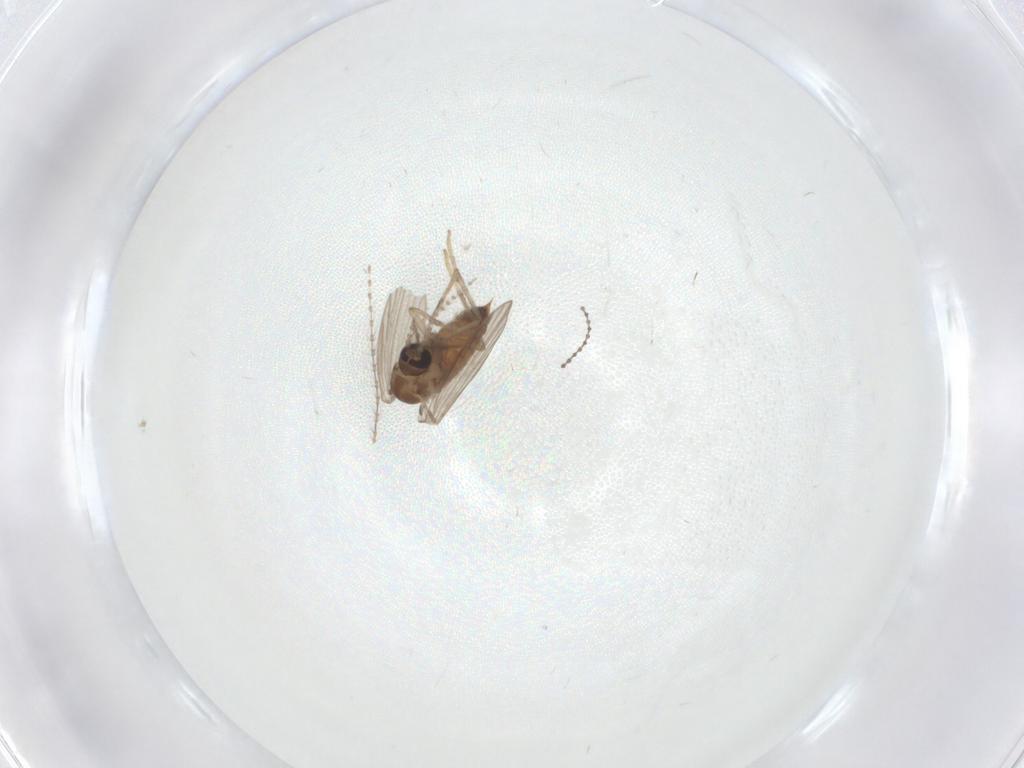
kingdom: Animalia
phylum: Arthropoda
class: Insecta
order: Diptera
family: Psychodidae
